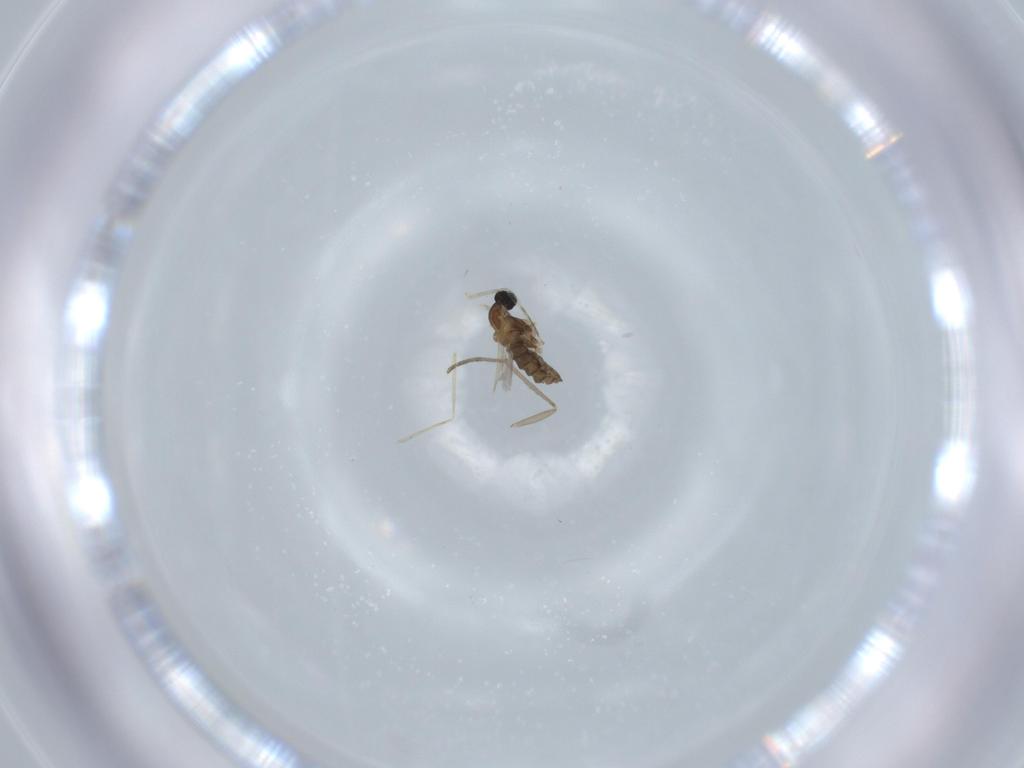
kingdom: Animalia
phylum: Arthropoda
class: Insecta
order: Diptera
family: Cecidomyiidae
